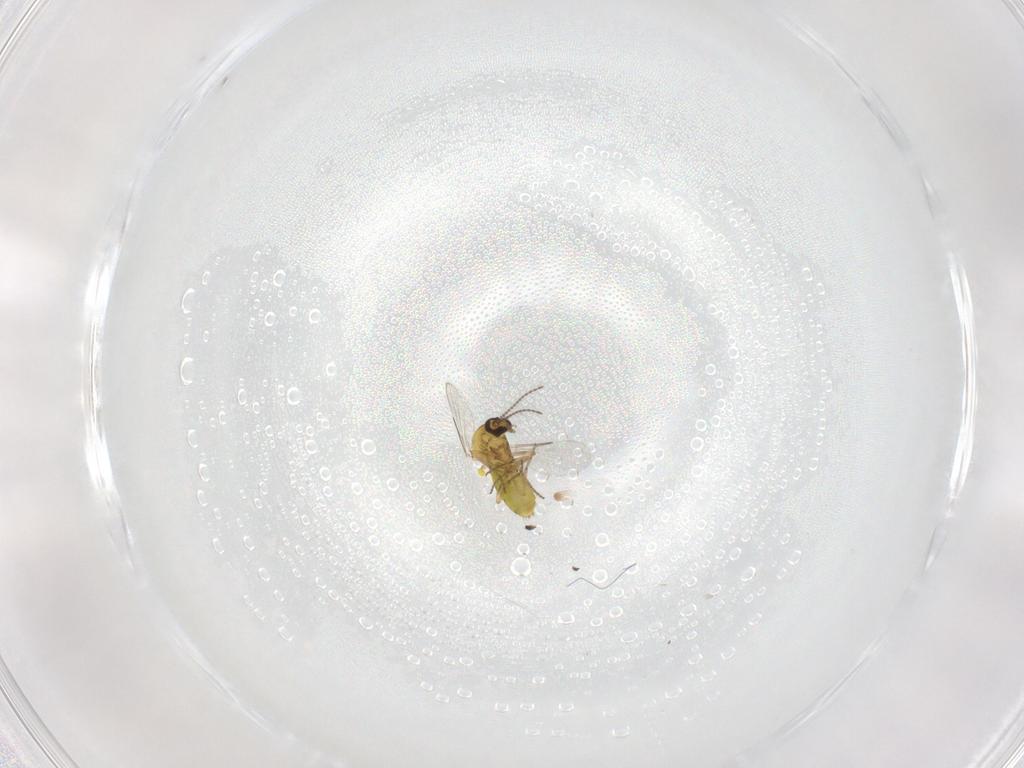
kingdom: Animalia
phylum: Arthropoda
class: Insecta
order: Diptera
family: Ceratopogonidae
